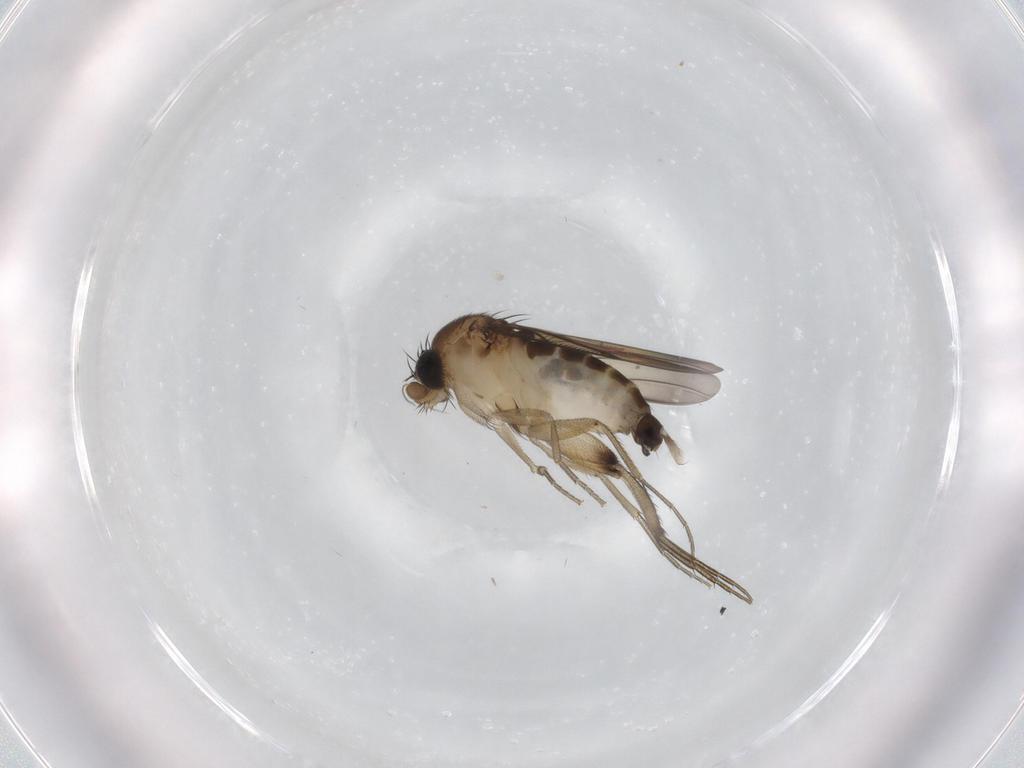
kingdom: Animalia
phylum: Arthropoda
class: Insecta
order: Diptera
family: Phoridae
